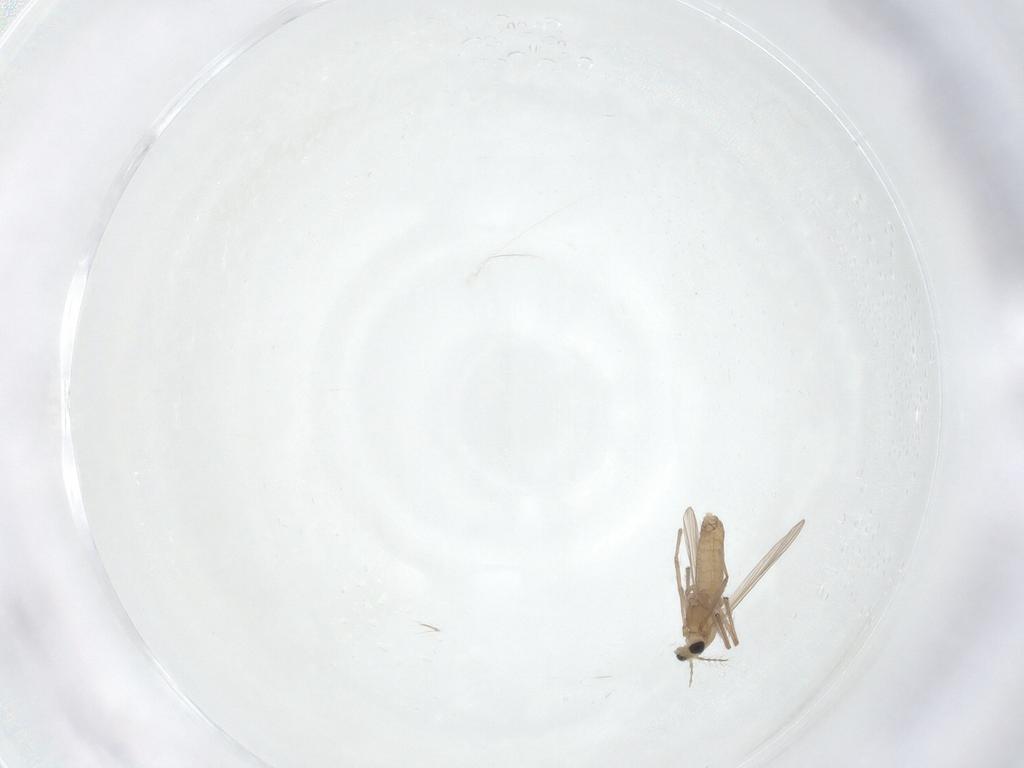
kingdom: Animalia
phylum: Arthropoda
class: Insecta
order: Diptera
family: Chironomidae
